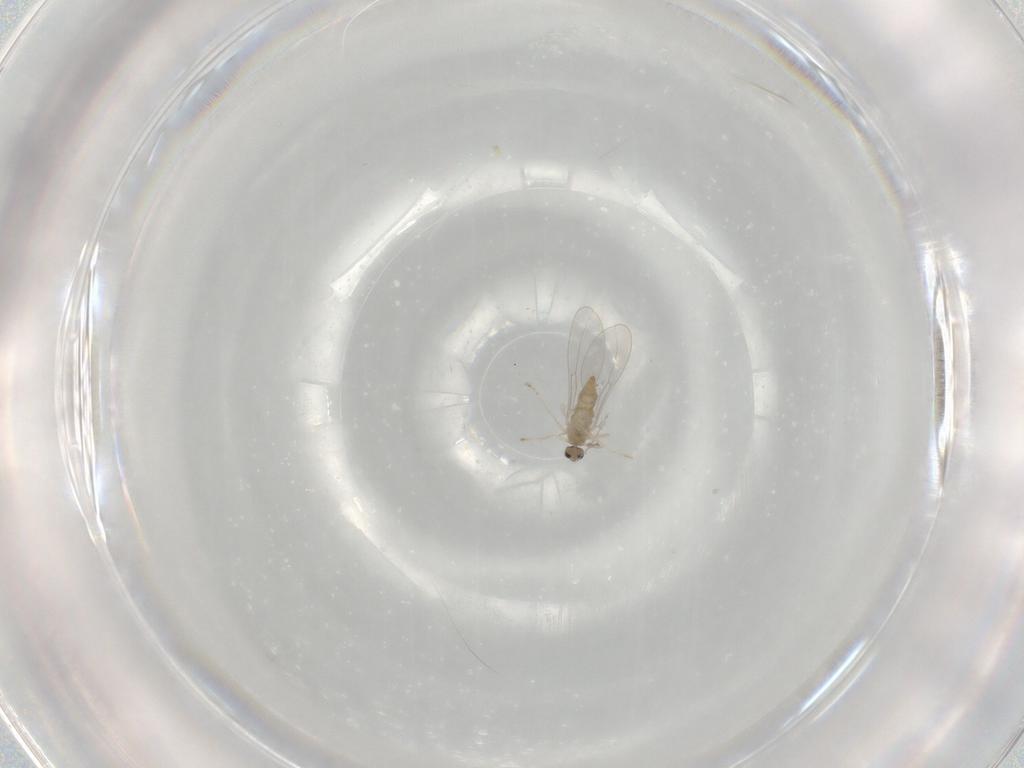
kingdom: Animalia
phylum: Arthropoda
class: Insecta
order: Diptera
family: Cecidomyiidae
